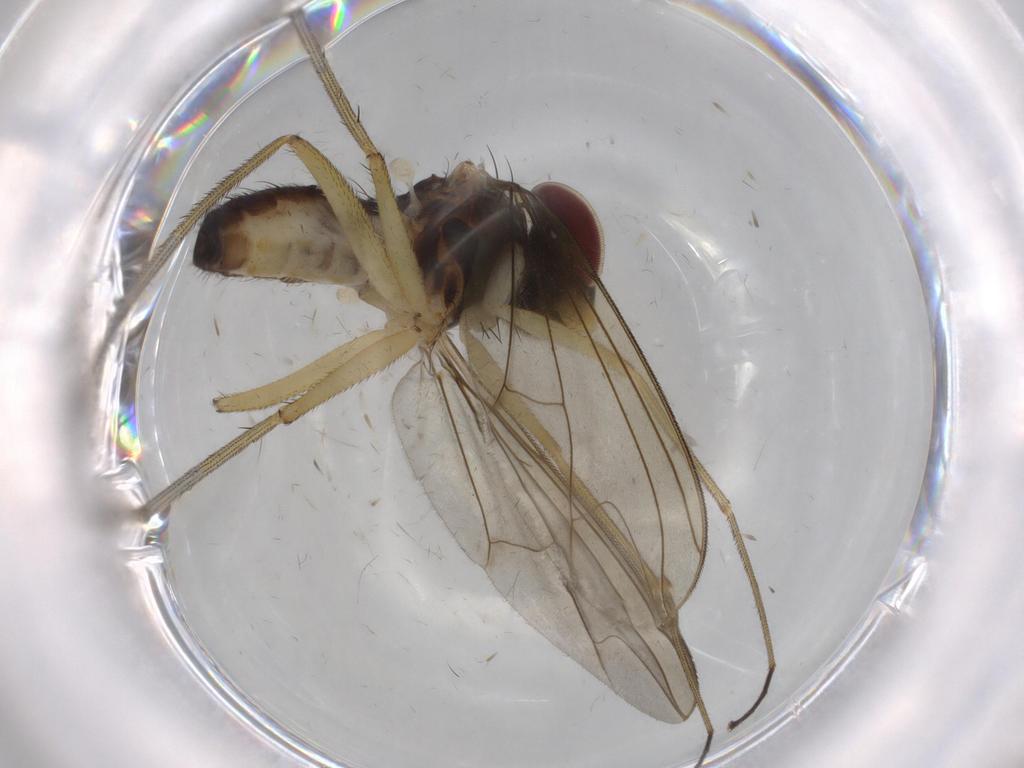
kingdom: Animalia
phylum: Arthropoda
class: Insecta
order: Diptera
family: Dolichopodidae
